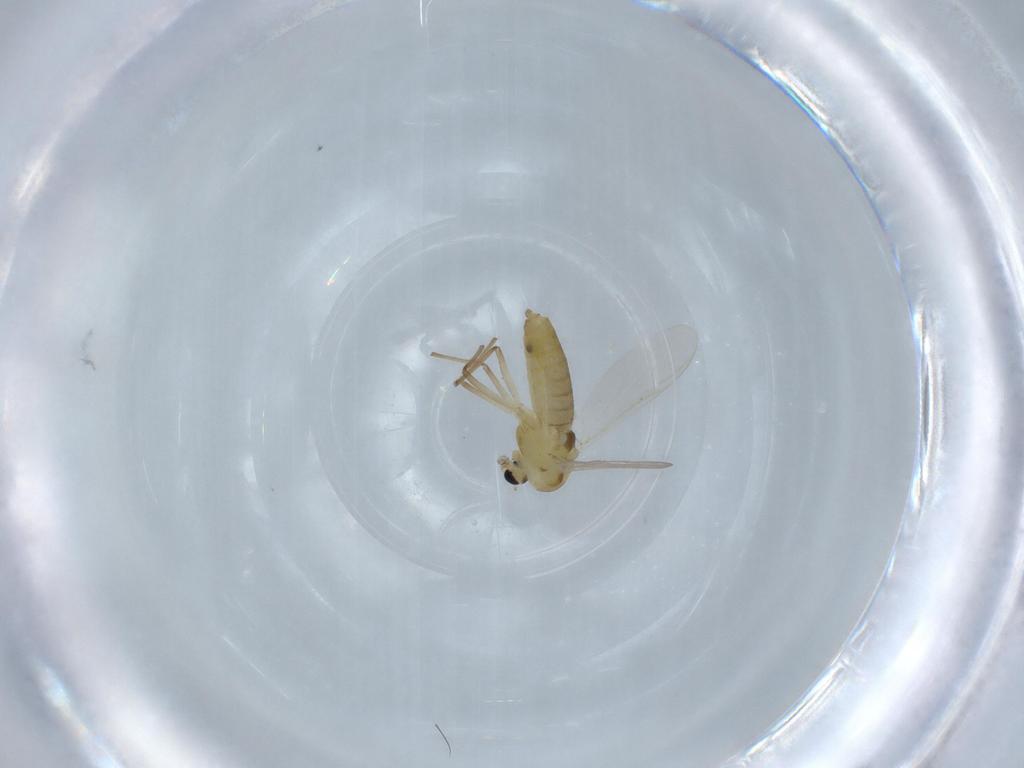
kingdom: Animalia
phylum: Arthropoda
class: Insecta
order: Diptera
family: Chironomidae
